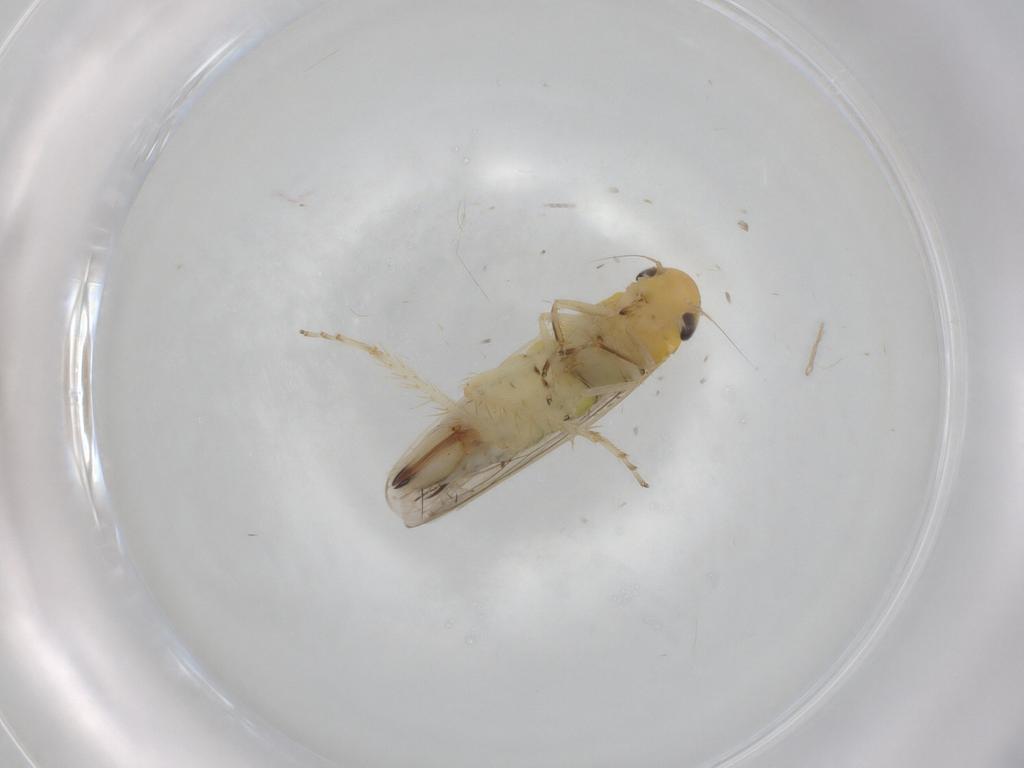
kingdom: Animalia
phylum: Arthropoda
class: Insecta
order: Hemiptera
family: Cicadellidae
